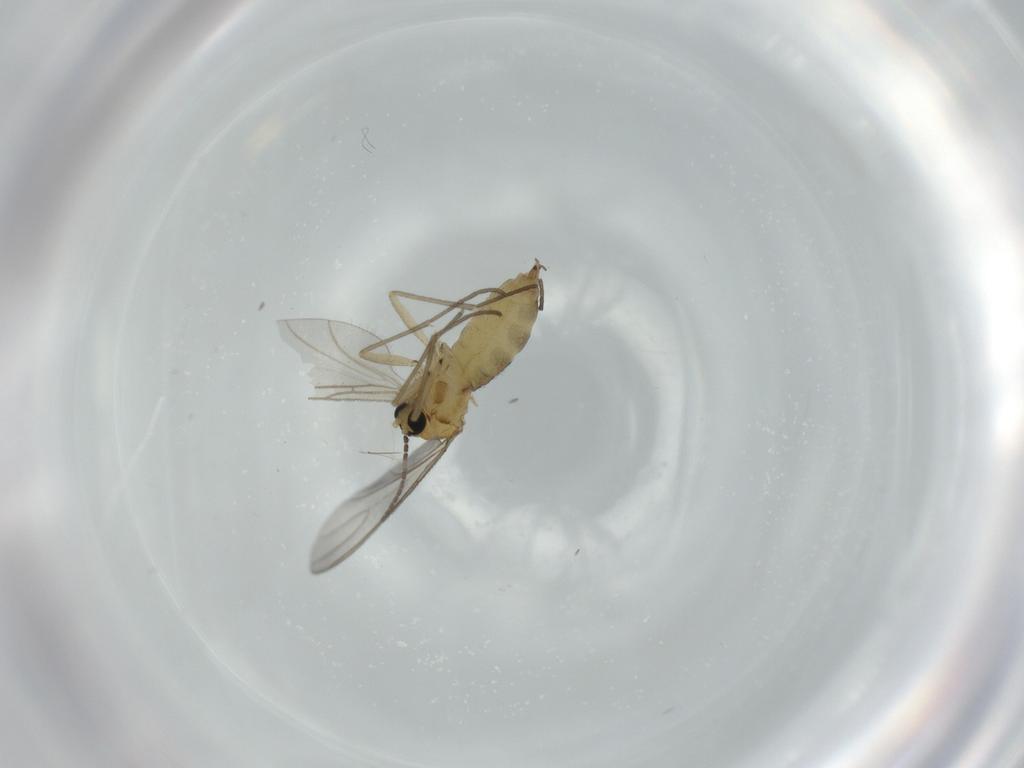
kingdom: Animalia
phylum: Arthropoda
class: Insecta
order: Diptera
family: Sciaridae
